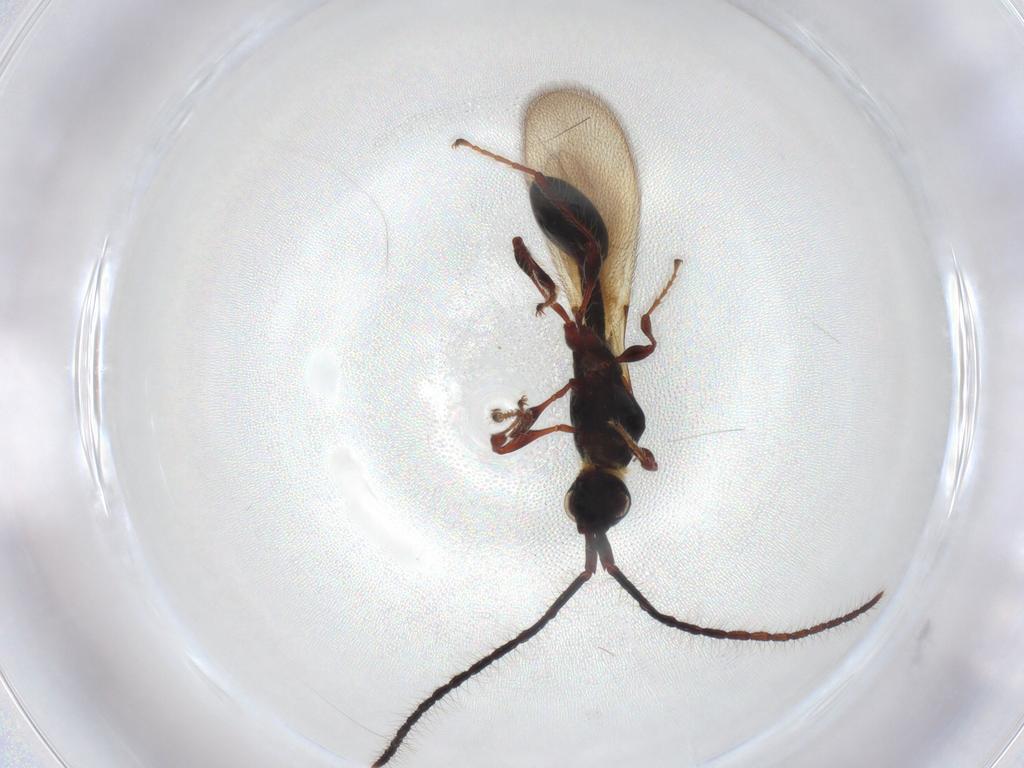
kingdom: Animalia
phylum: Arthropoda
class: Insecta
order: Hymenoptera
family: Diapriidae
